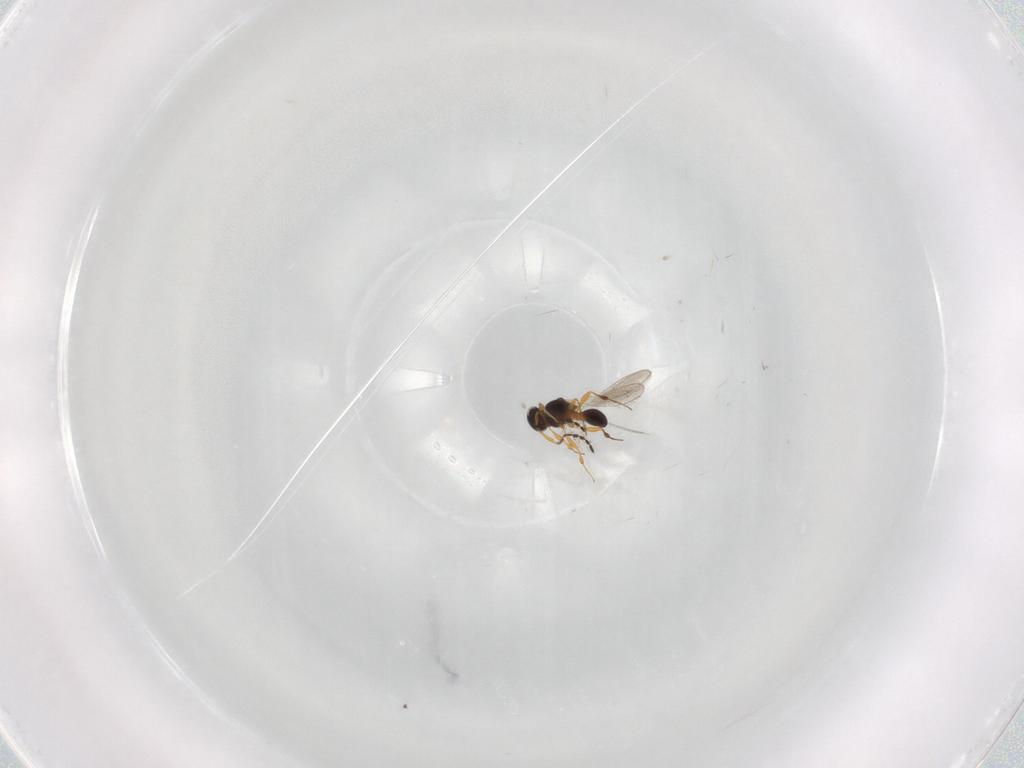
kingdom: Animalia
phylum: Arthropoda
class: Insecta
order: Hymenoptera
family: Platygastridae
